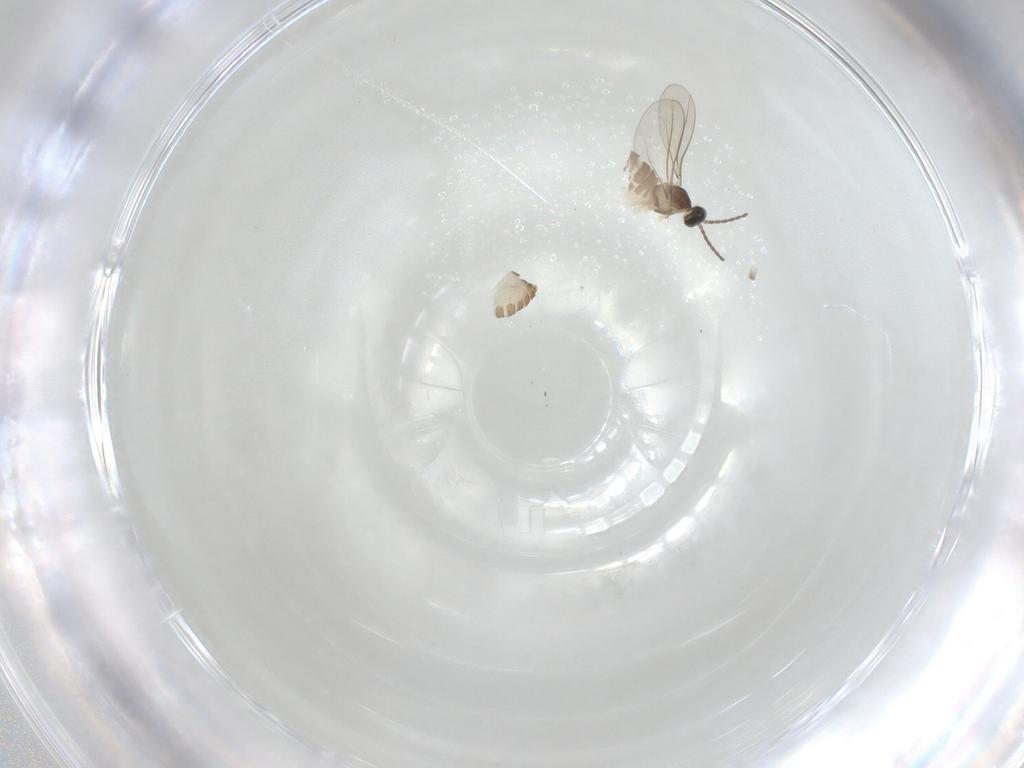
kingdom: Animalia
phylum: Arthropoda
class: Insecta
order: Diptera
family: Cecidomyiidae
